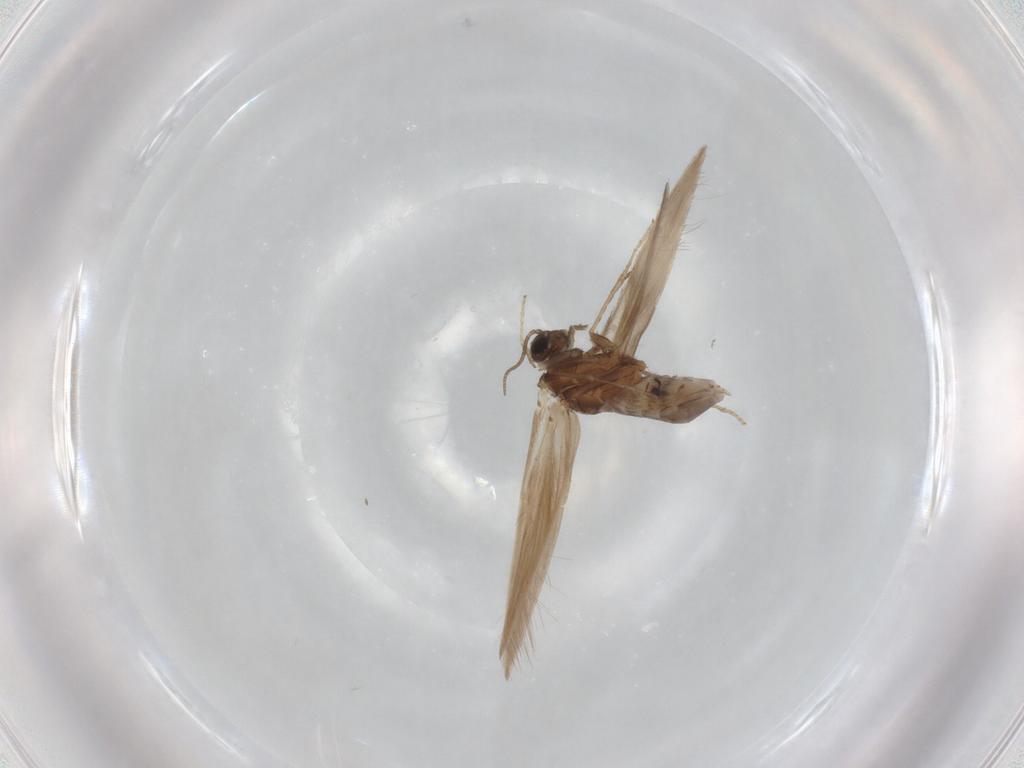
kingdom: Animalia
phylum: Arthropoda
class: Insecta
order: Trichoptera
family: Hydroptilidae
